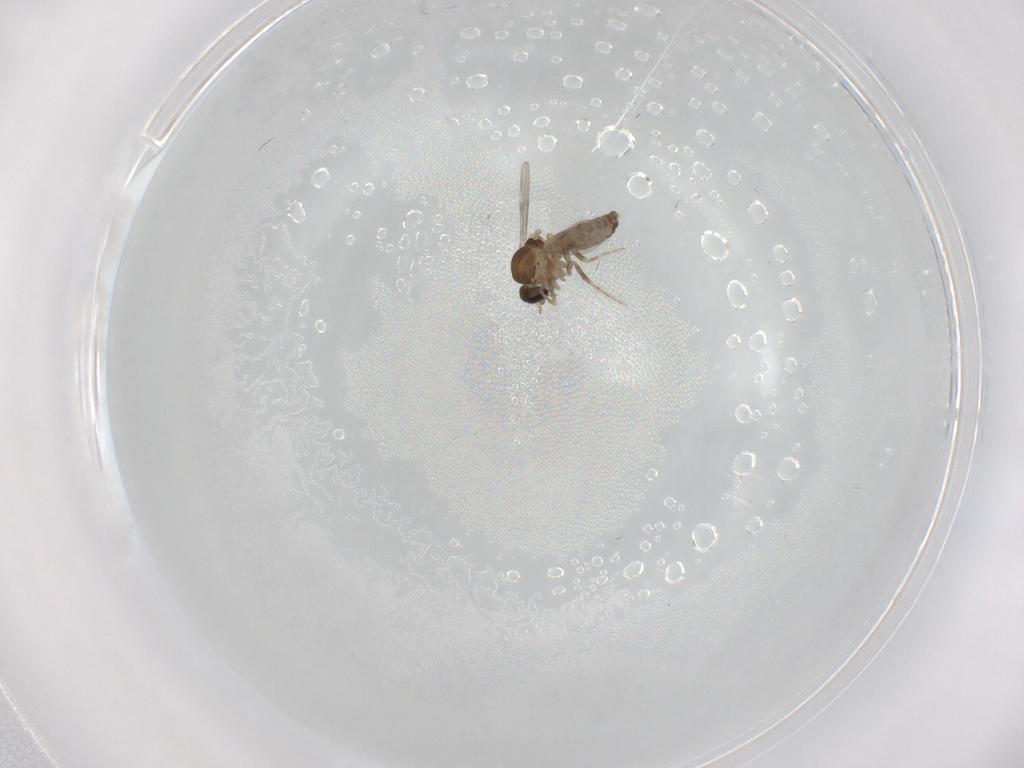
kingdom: Animalia
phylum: Arthropoda
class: Insecta
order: Diptera
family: Ceratopogonidae
